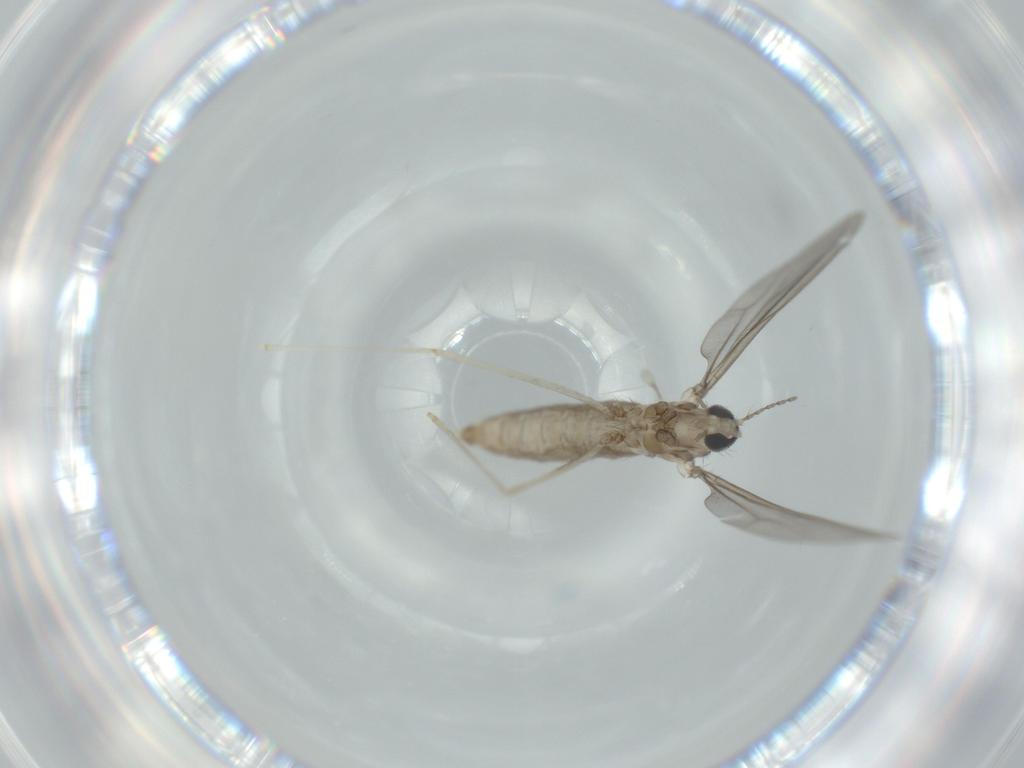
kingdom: Animalia
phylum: Arthropoda
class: Insecta
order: Diptera
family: Cecidomyiidae
